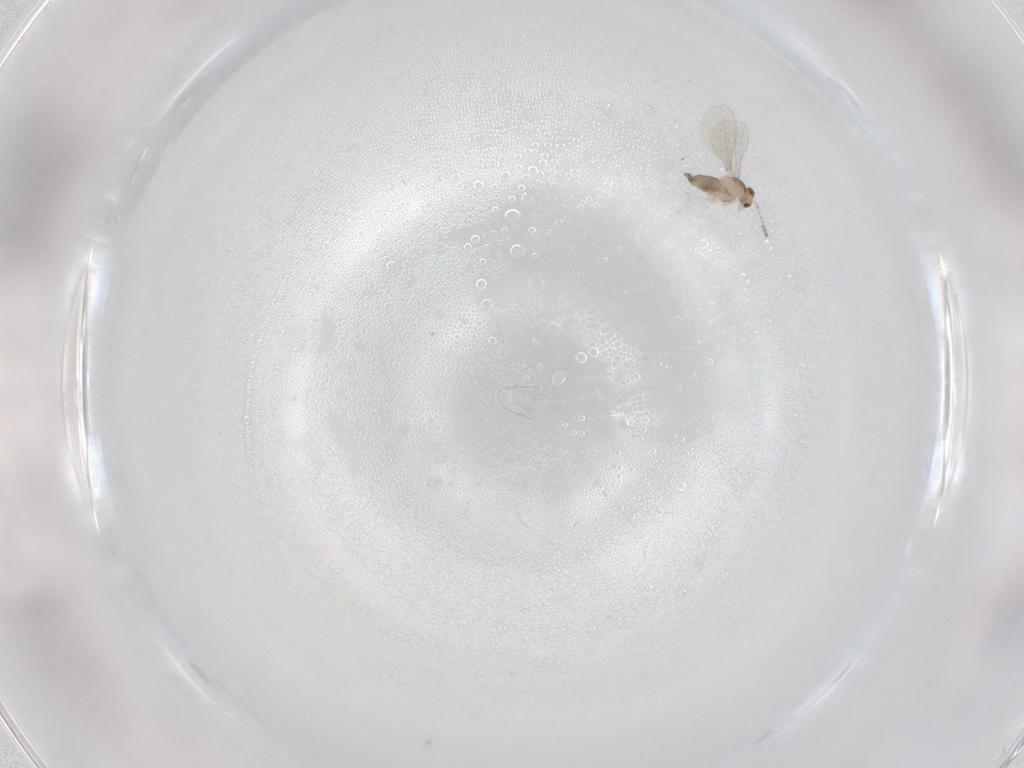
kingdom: Animalia
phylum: Arthropoda
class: Insecta
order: Diptera
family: Cecidomyiidae
